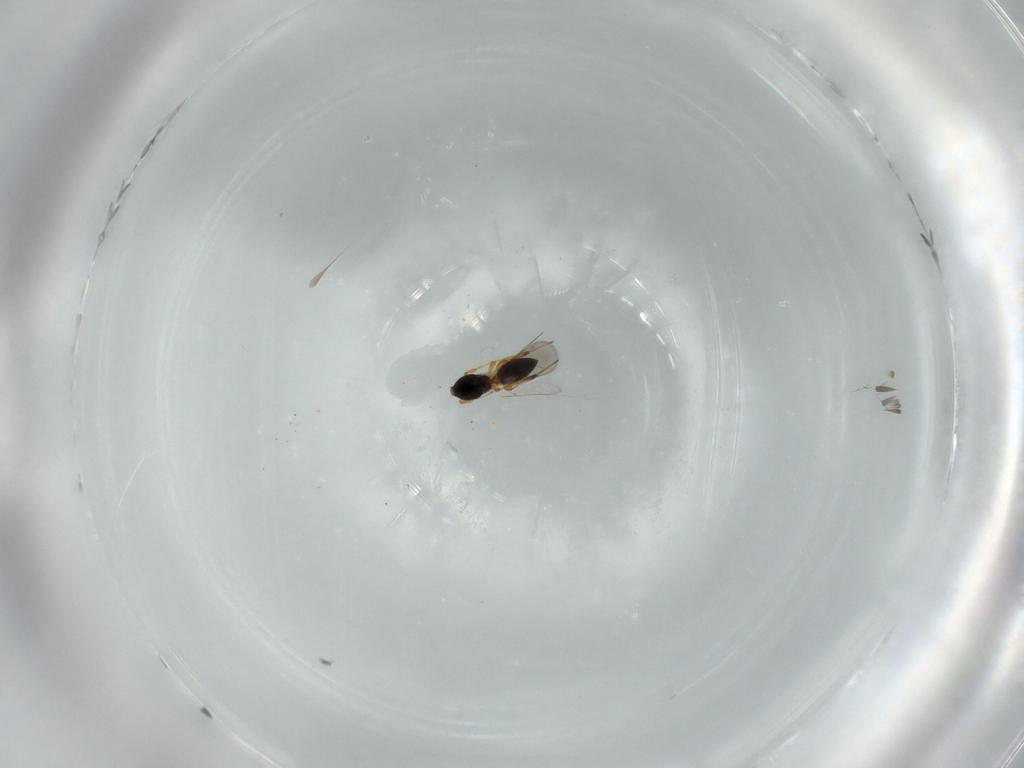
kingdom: Animalia
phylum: Arthropoda
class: Insecta
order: Hymenoptera
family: Platygastridae
